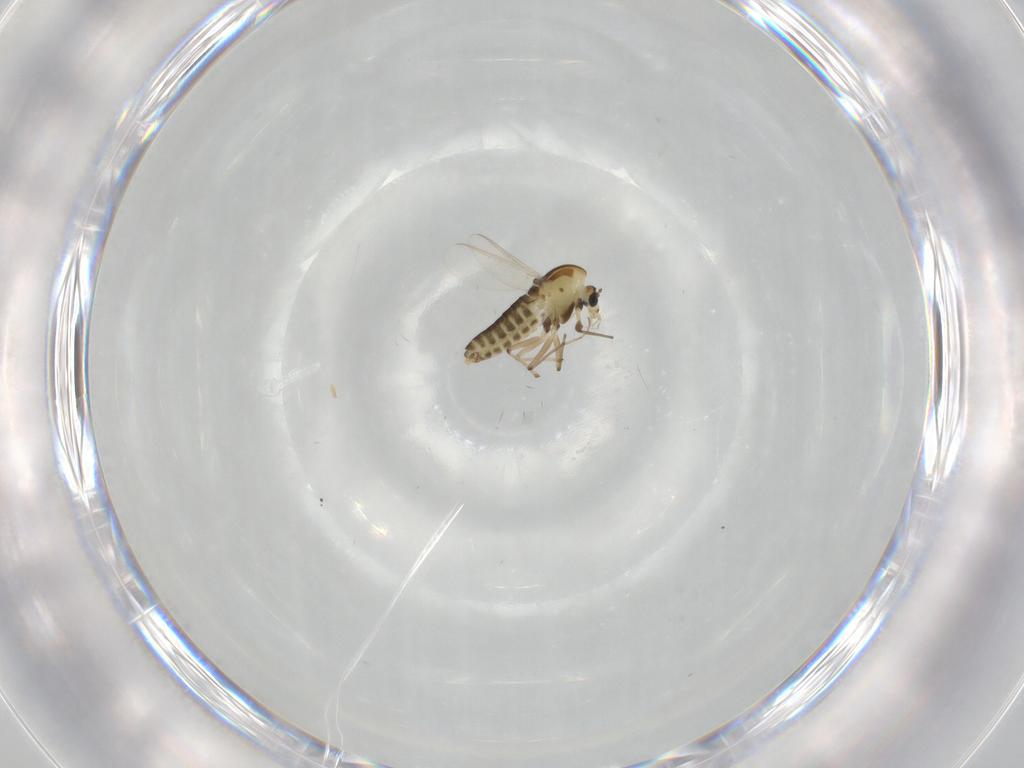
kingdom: Animalia
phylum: Arthropoda
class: Insecta
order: Diptera
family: Chironomidae
